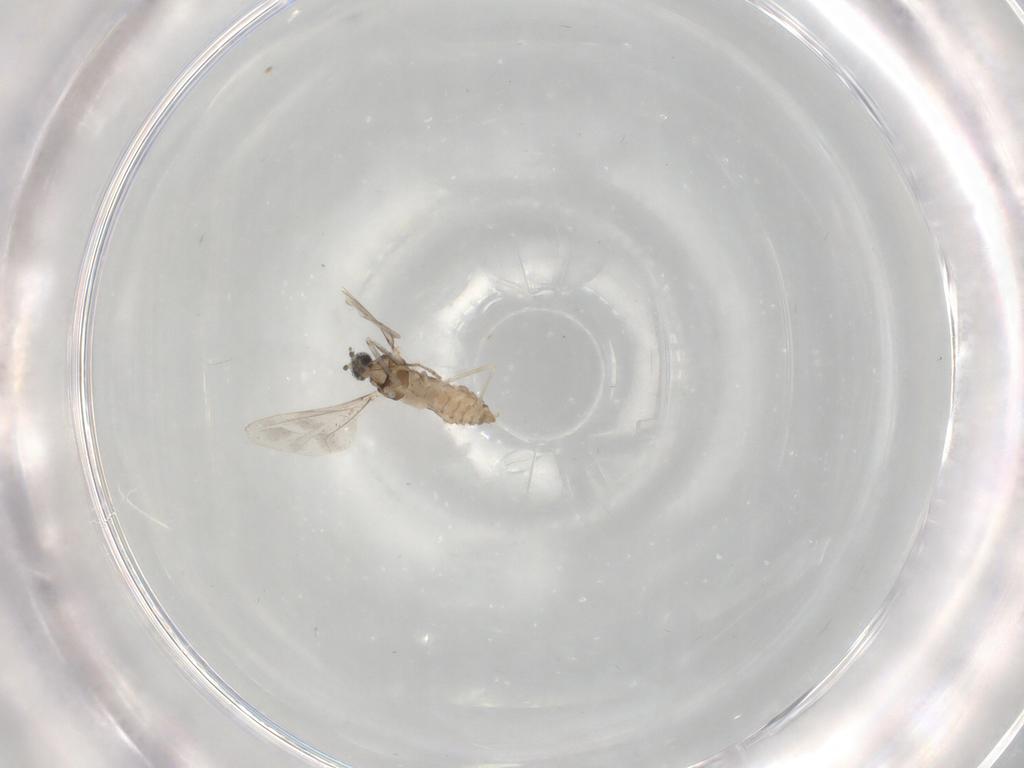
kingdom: Animalia
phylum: Arthropoda
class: Insecta
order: Diptera
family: Cecidomyiidae
